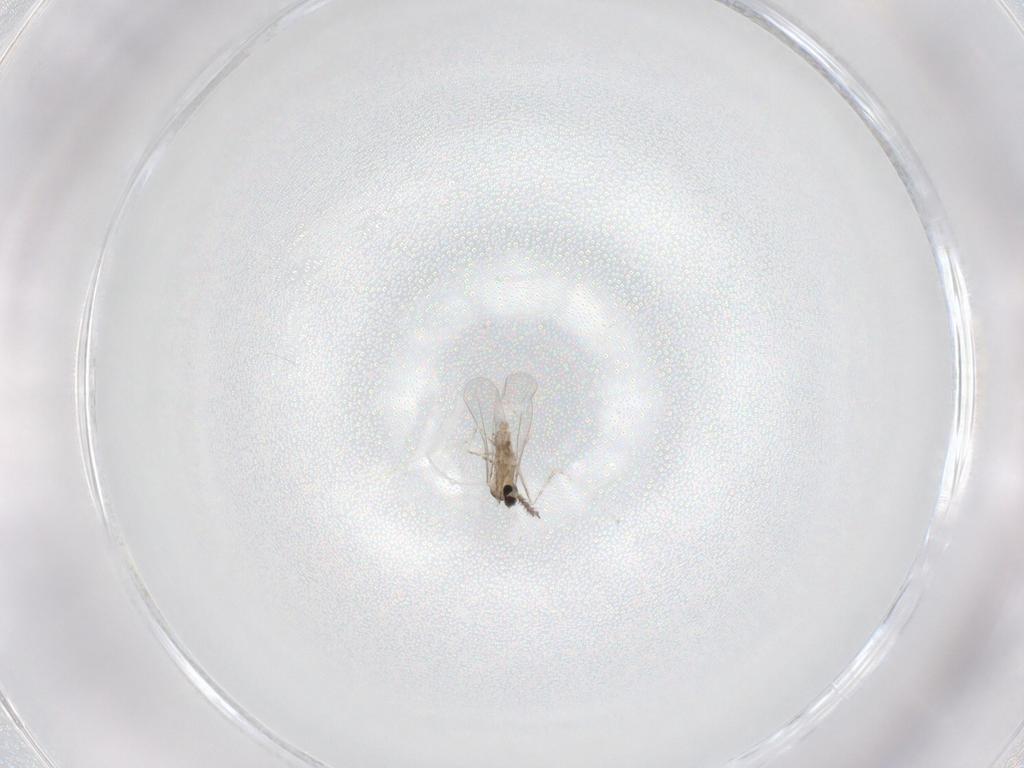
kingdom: Animalia
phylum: Arthropoda
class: Insecta
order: Diptera
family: Cecidomyiidae
